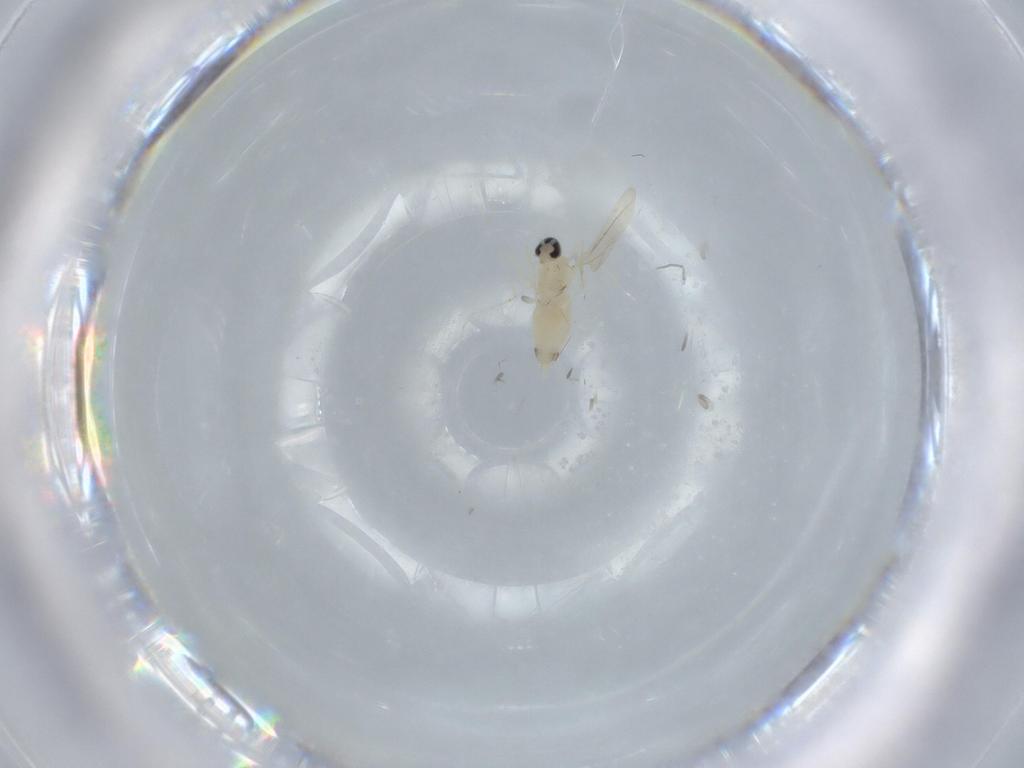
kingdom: Animalia
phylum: Arthropoda
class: Insecta
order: Diptera
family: Cecidomyiidae
